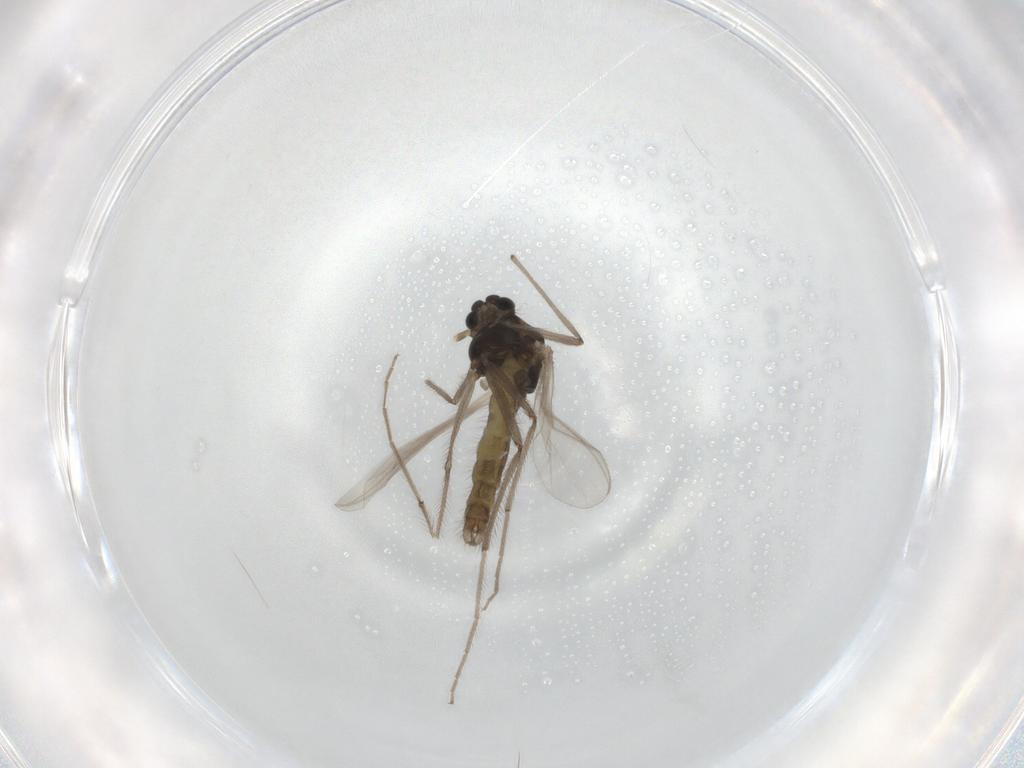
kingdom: Animalia
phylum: Arthropoda
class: Insecta
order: Diptera
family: Chironomidae
